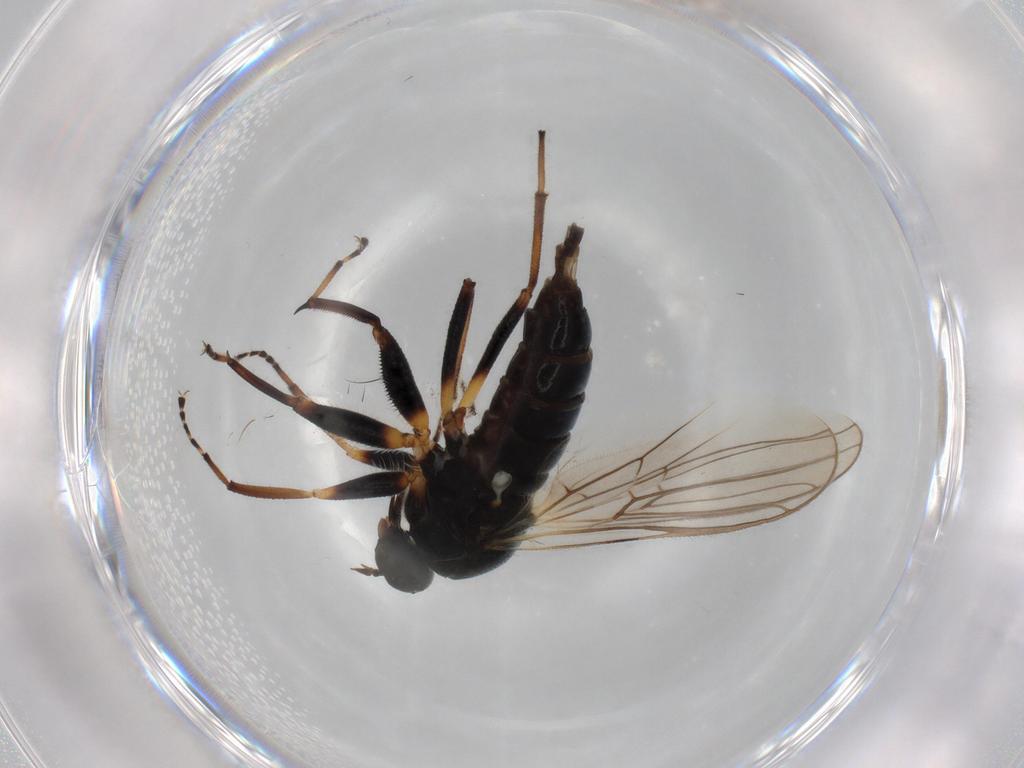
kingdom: Animalia
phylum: Arthropoda
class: Insecta
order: Diptera
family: Hybotidae
